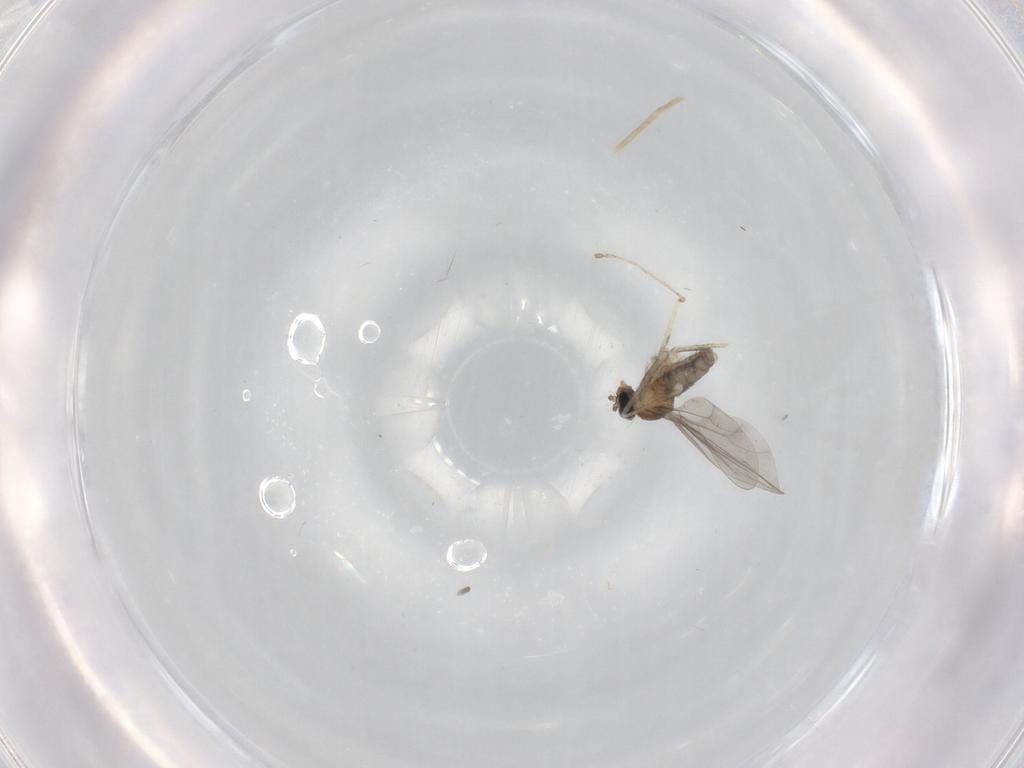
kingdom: Animalia
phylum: Arthropoda
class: Insecta
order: Diptera
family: Cecidomyiidae
